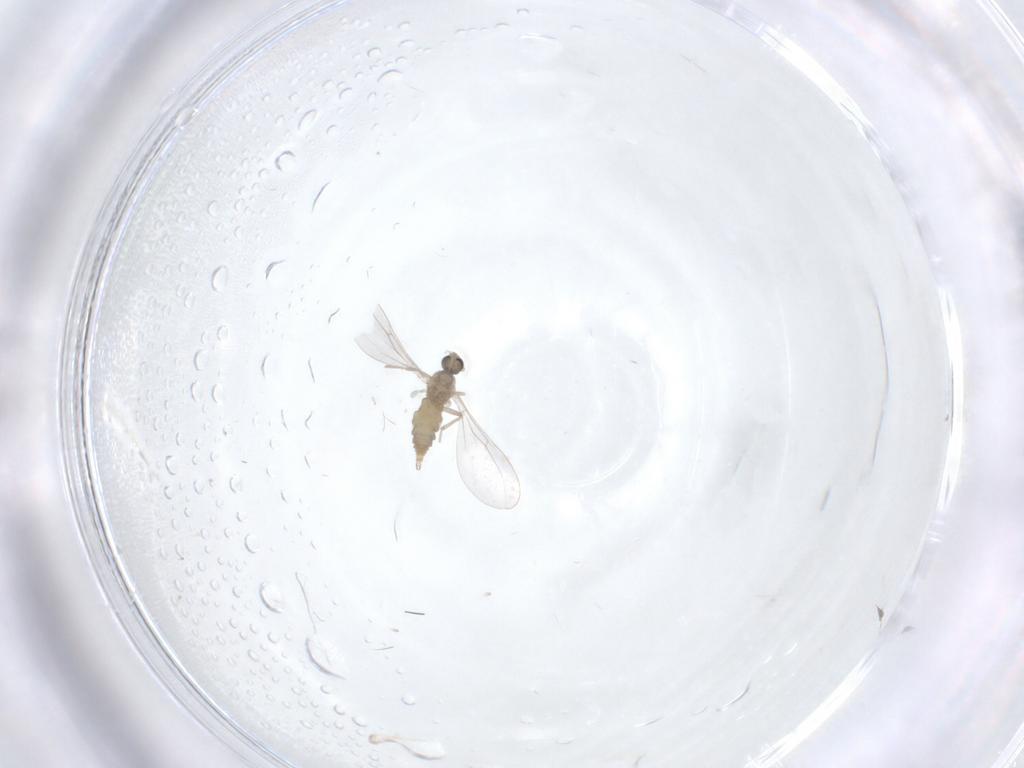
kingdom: Animalia
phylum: Arthropoda
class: Insecta
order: Diptera
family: Cecidomyiidae
